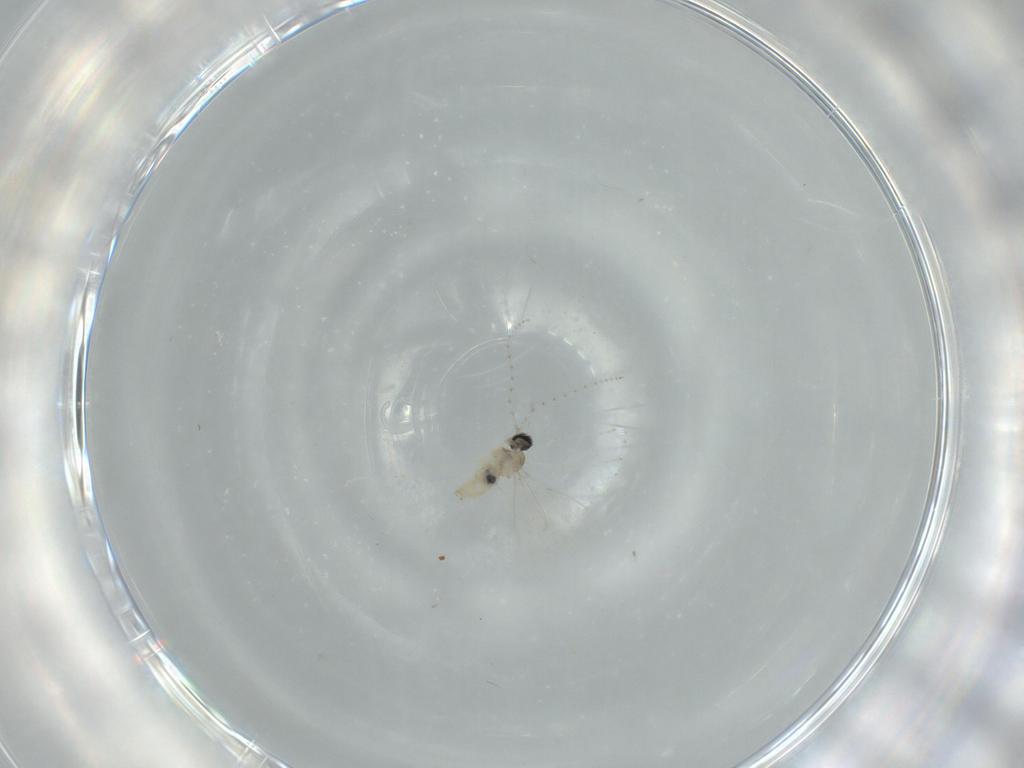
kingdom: Animalia
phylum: Arthropoda
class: Insecta
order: Diptera
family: Cecidomyiidae
